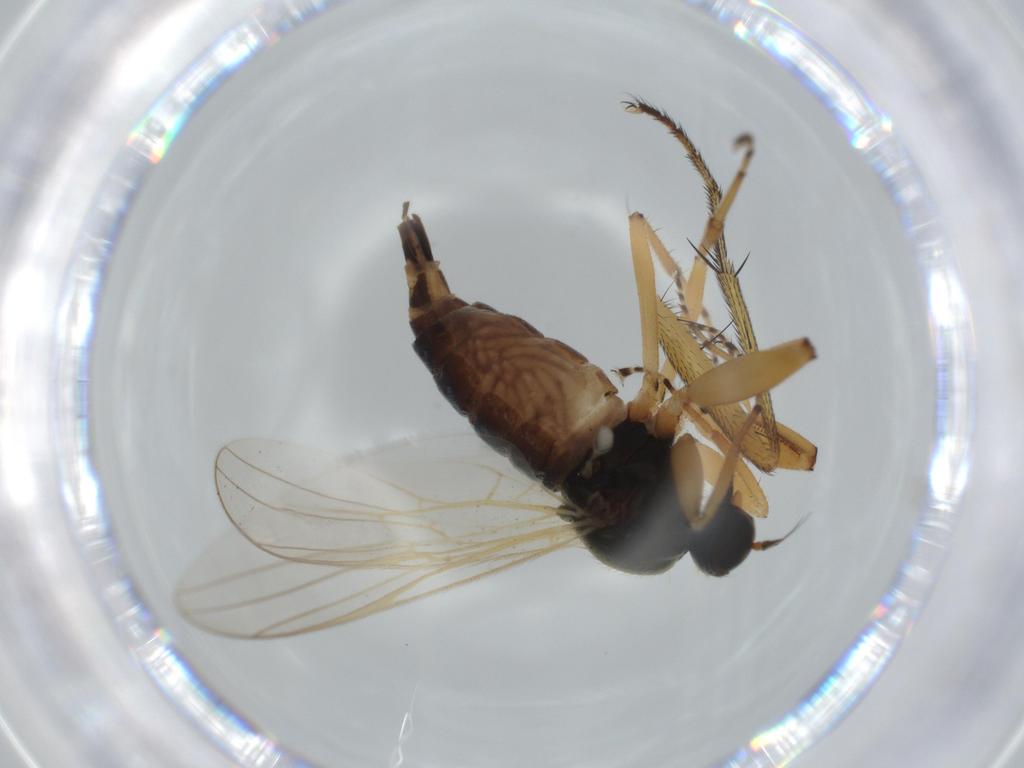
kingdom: Animalia
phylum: Arthropoda
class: Insecta
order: Diptera
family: Hybotidae
